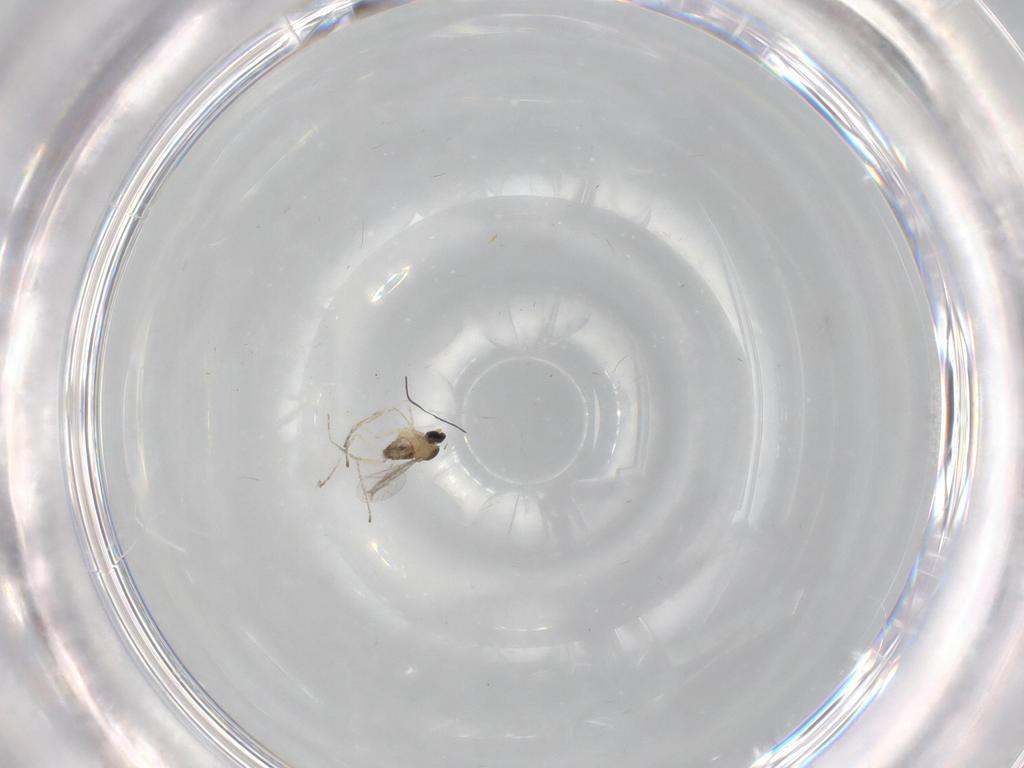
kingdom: Animalia
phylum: Arthropoda
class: Insecta
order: Diptera
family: Cecidomyiidae
